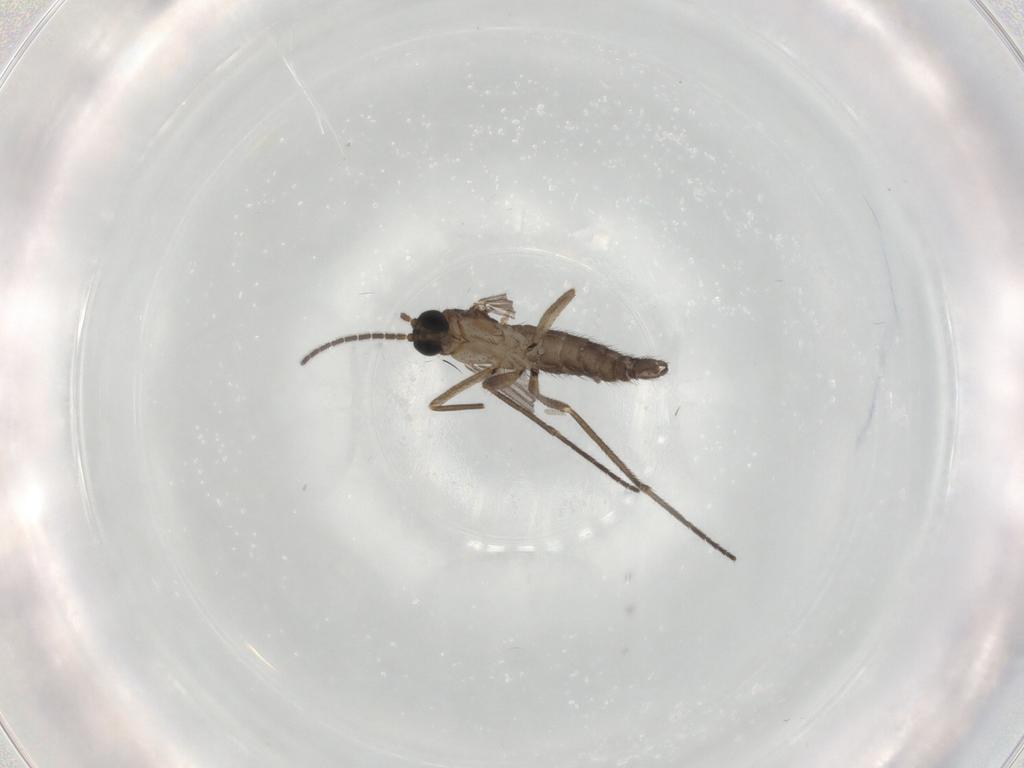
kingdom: Animalia
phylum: Arthropoda
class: Insecta
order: Diptera
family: Sciaridae
